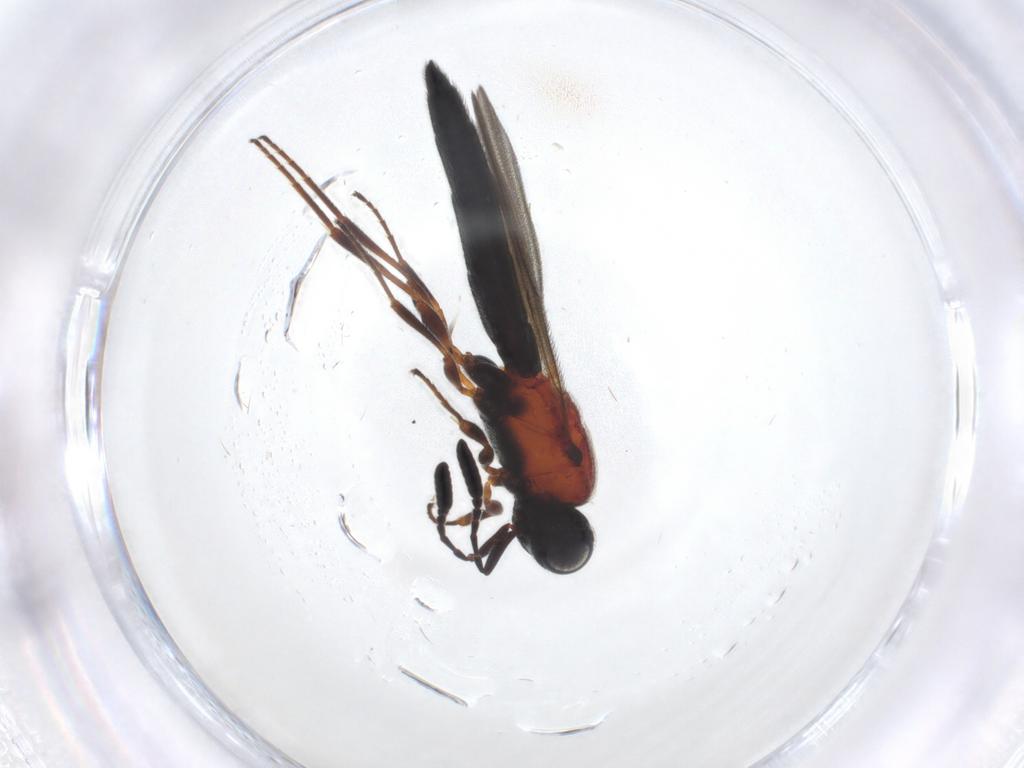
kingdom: Animalia
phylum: Arthropoda
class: Insecta
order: Hymenoptera
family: Scelionidae
